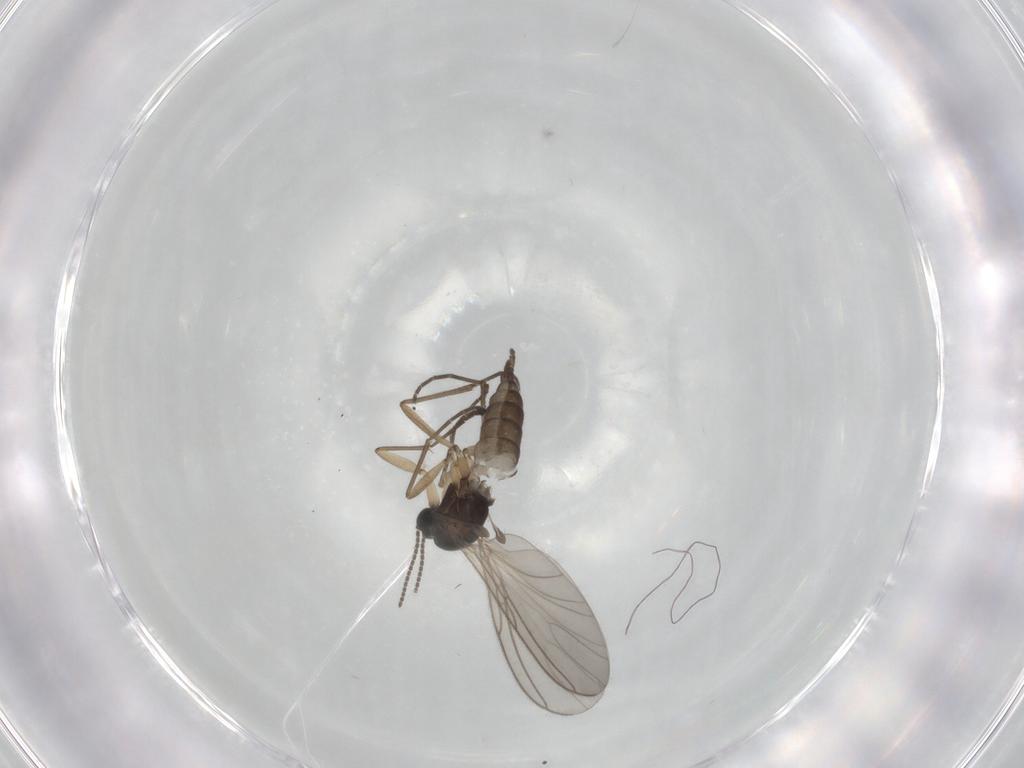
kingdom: Animalia
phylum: Arthropoda
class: Insecta
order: Diptera
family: Sciaridae
